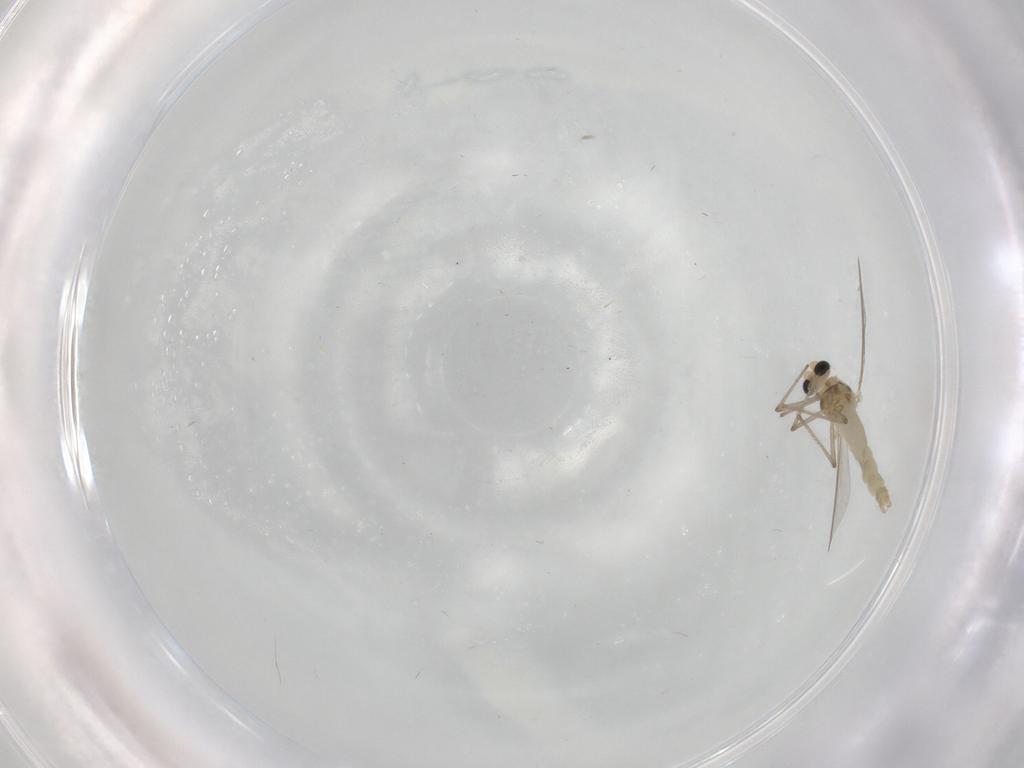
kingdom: Animalia
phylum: Arthropoda
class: Insecta
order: Diptera
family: Chironomidae
